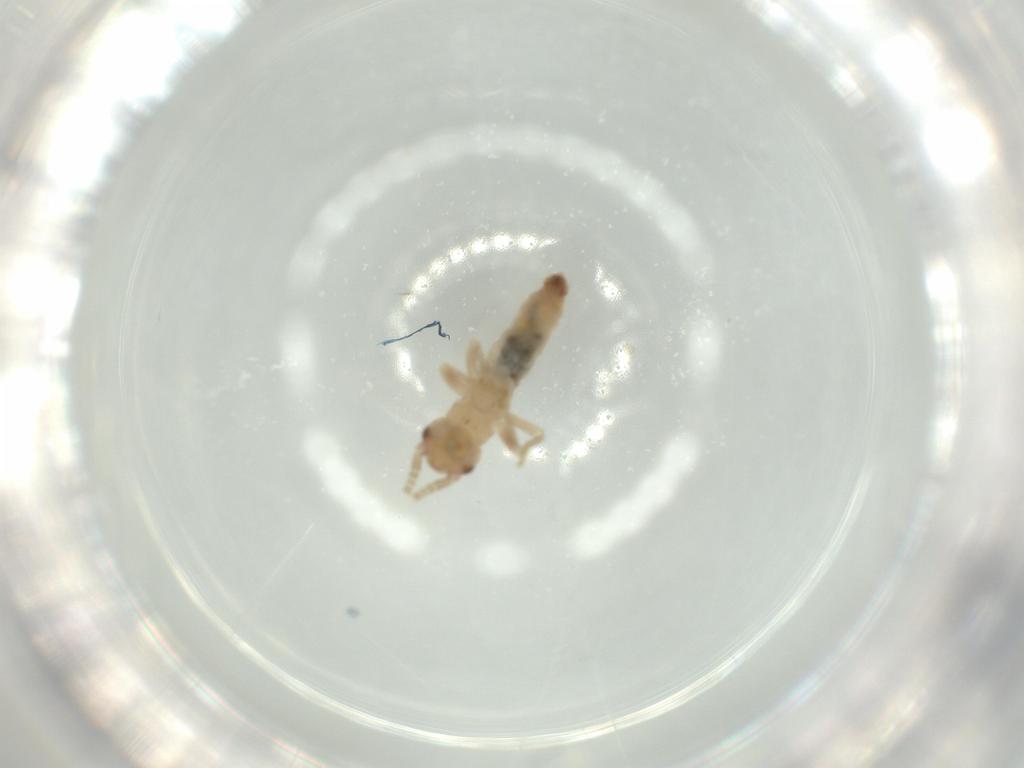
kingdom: Animalia
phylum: Arthropoda
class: Insecta
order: Orthoptera
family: Mogoplistidae
